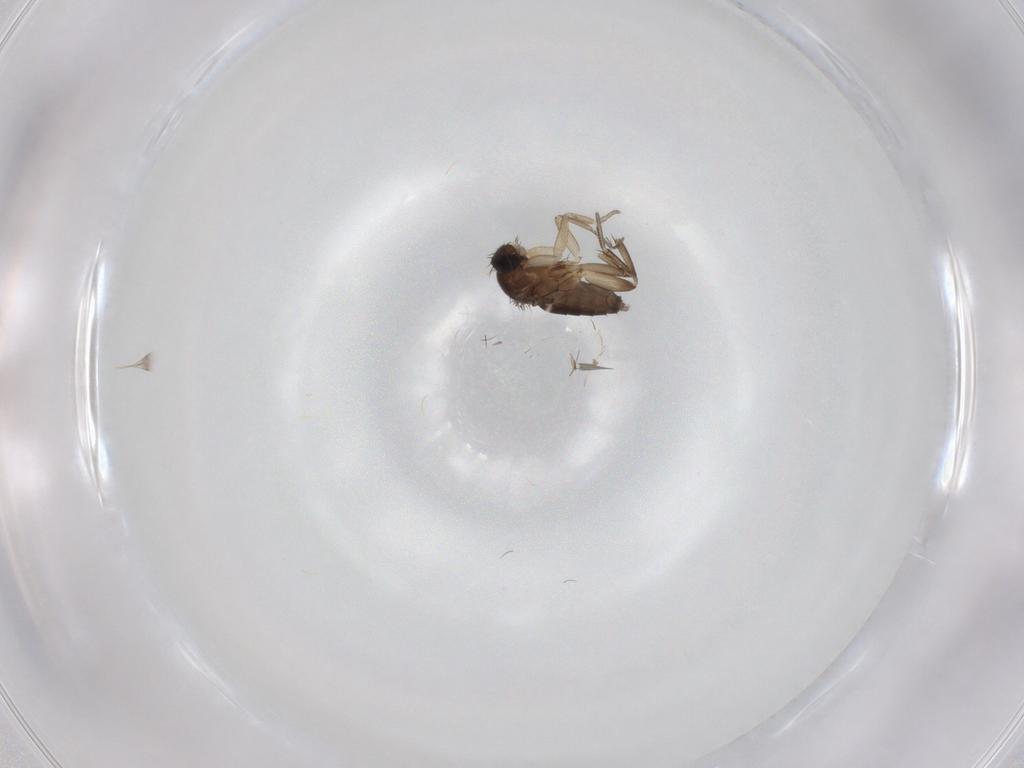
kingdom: Animalia
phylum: Arthropoda
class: Insecta
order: Diptera
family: Phoridae
